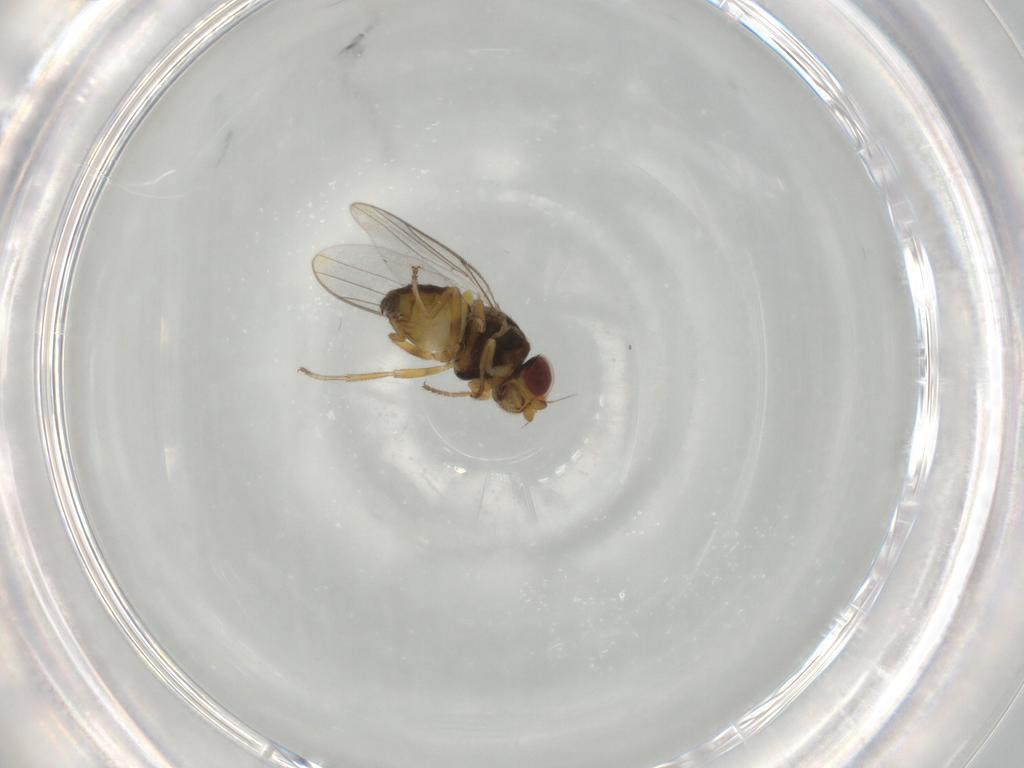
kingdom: Animalia
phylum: Arthropoda
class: Insecta
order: Diptera
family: Chloropidae
